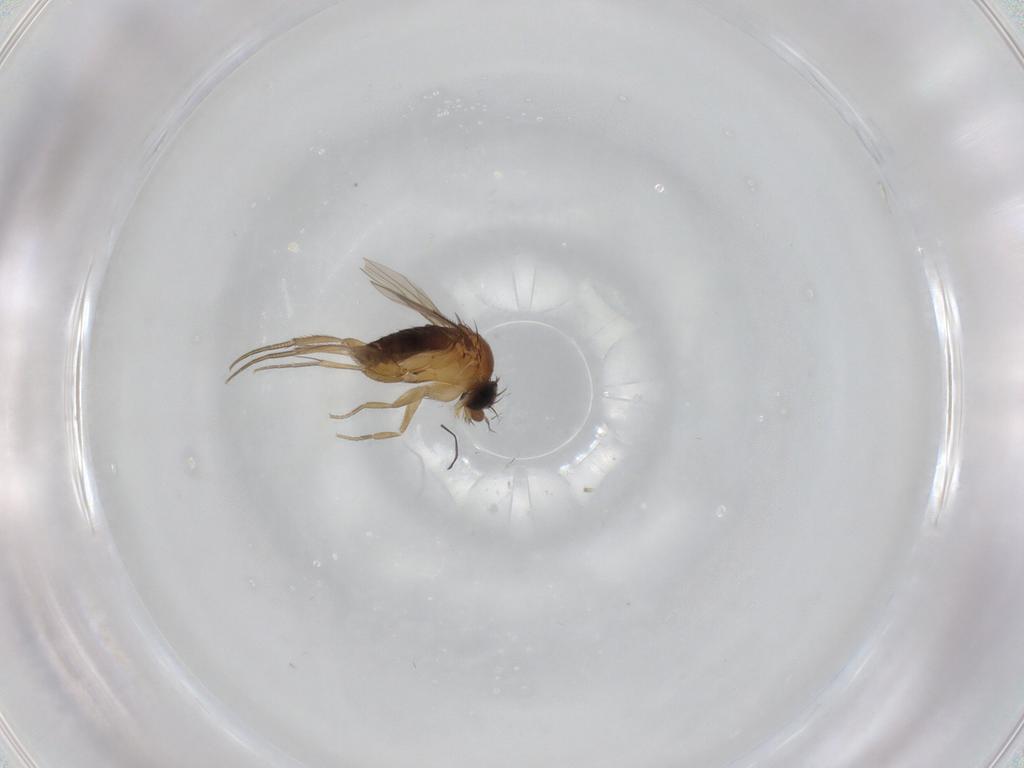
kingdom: Animalia
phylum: Arthropoda
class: Insecta
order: Diptera
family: Phoridae
